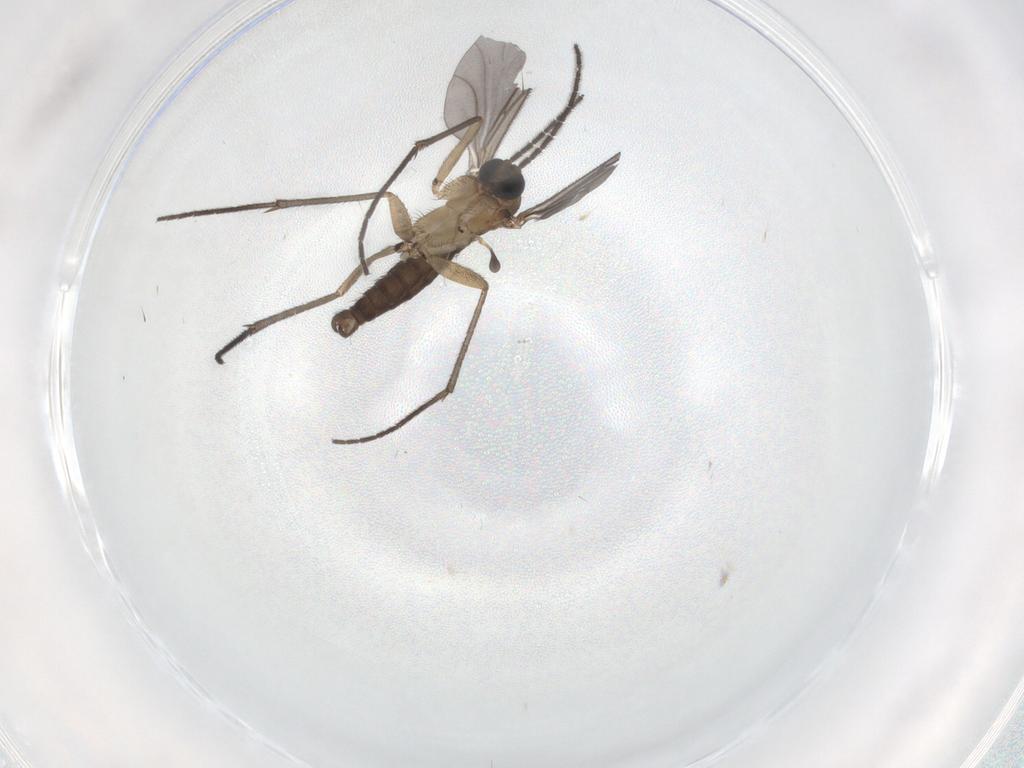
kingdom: Animalia
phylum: Arthropoda
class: Insecta
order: Diptera
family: Sciaridae
